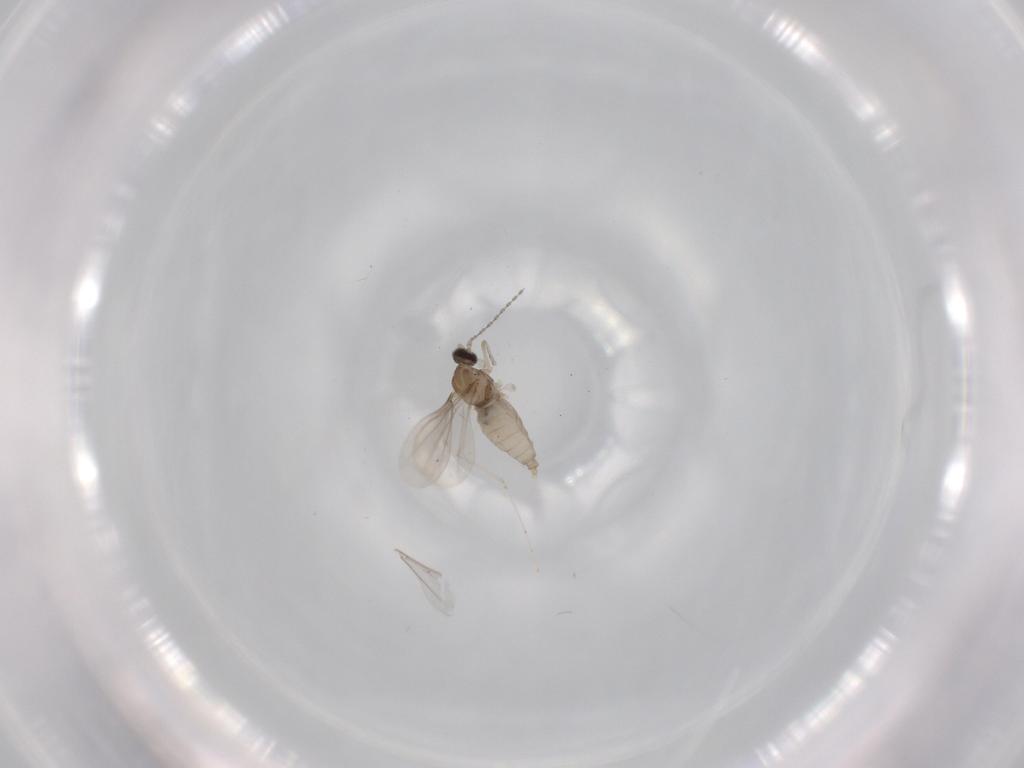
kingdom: Animalia
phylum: Arthropoda
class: Insecta
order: Diptera
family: Cecidomyiidae
